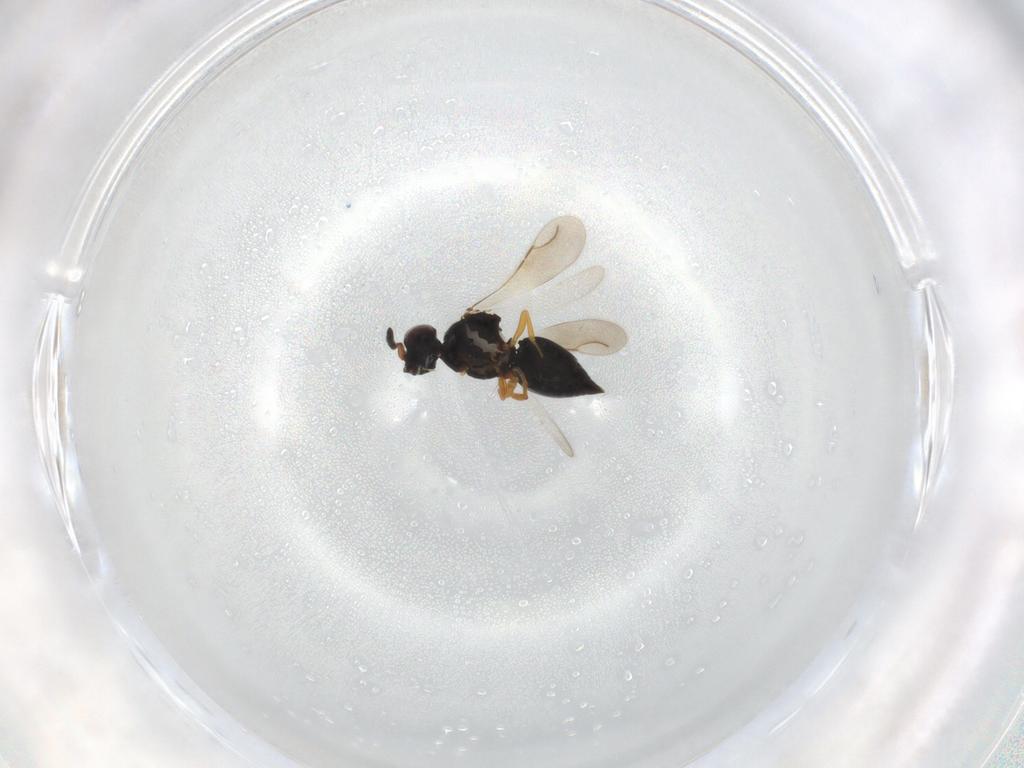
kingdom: Animalia
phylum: Arthropoda
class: Insecta
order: Hymenoptera
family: Ceraphronidae
